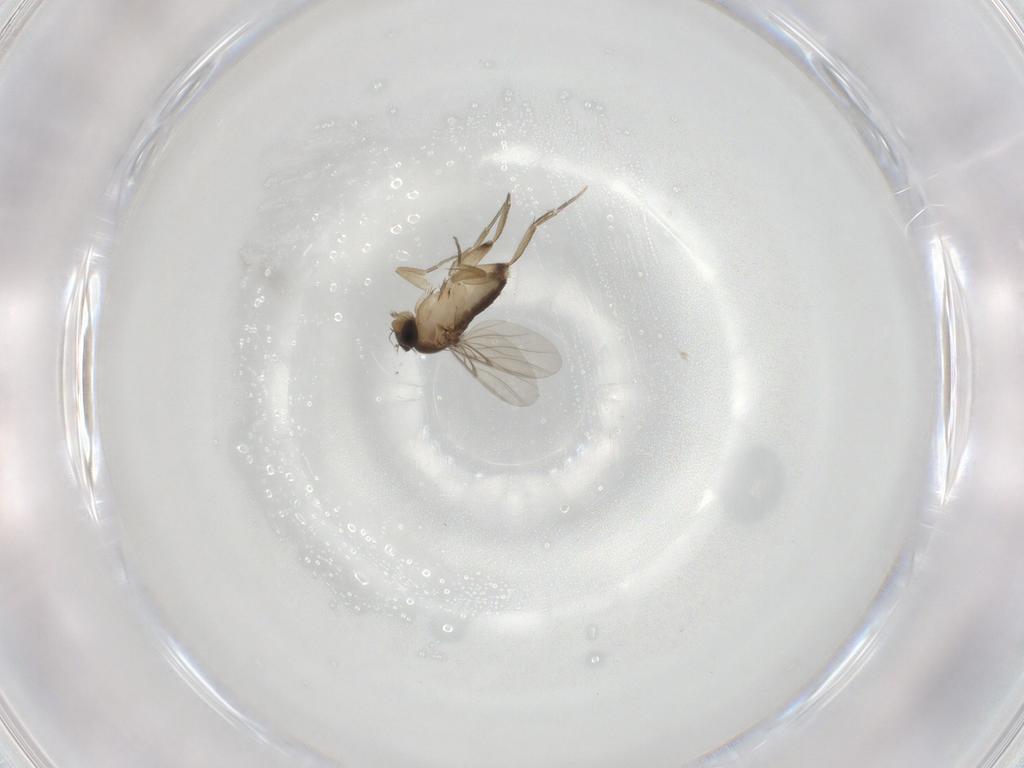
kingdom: Animalia
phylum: Arthropoda
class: Insecta
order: Diptera
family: Phoridae
